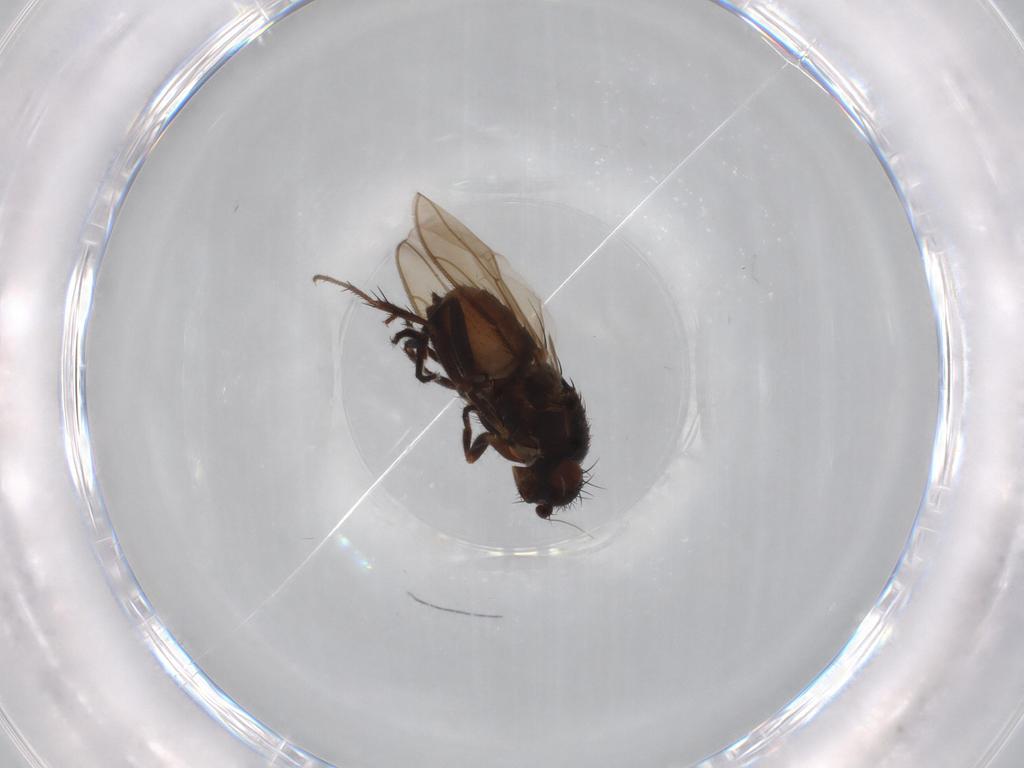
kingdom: Animalia
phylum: Arthropoda
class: Insecta
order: Diptera
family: Sphaeroceridae
